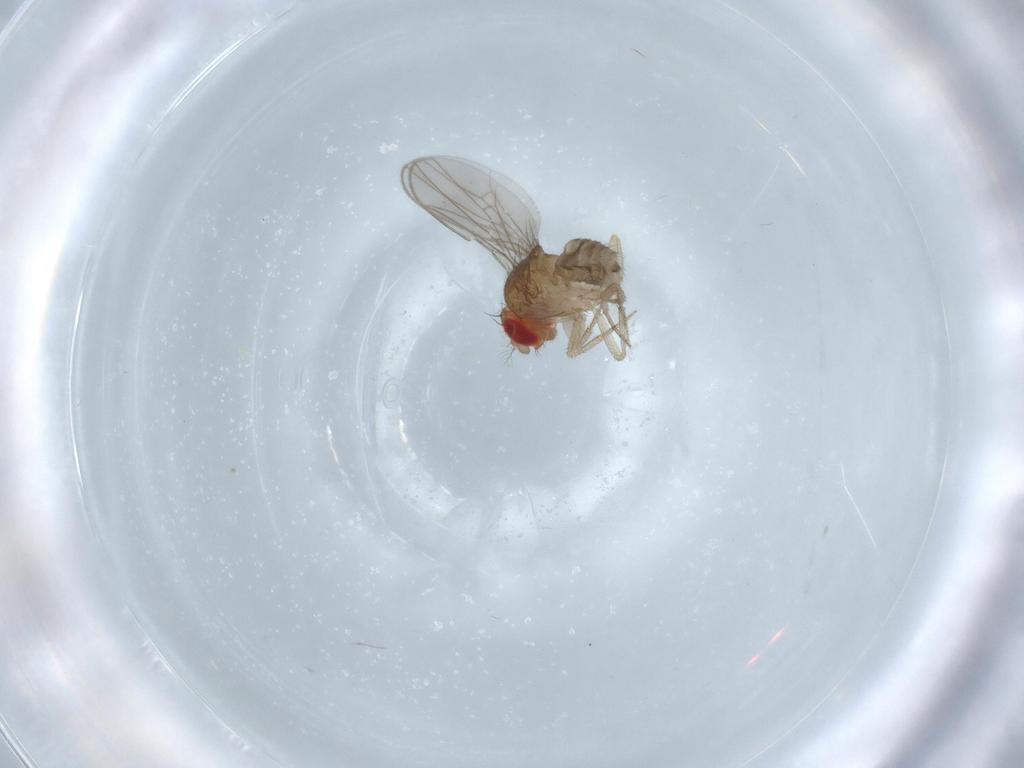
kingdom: Animalia
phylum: Arthropoda
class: Insecta
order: Diptera
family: Drosophilidae
